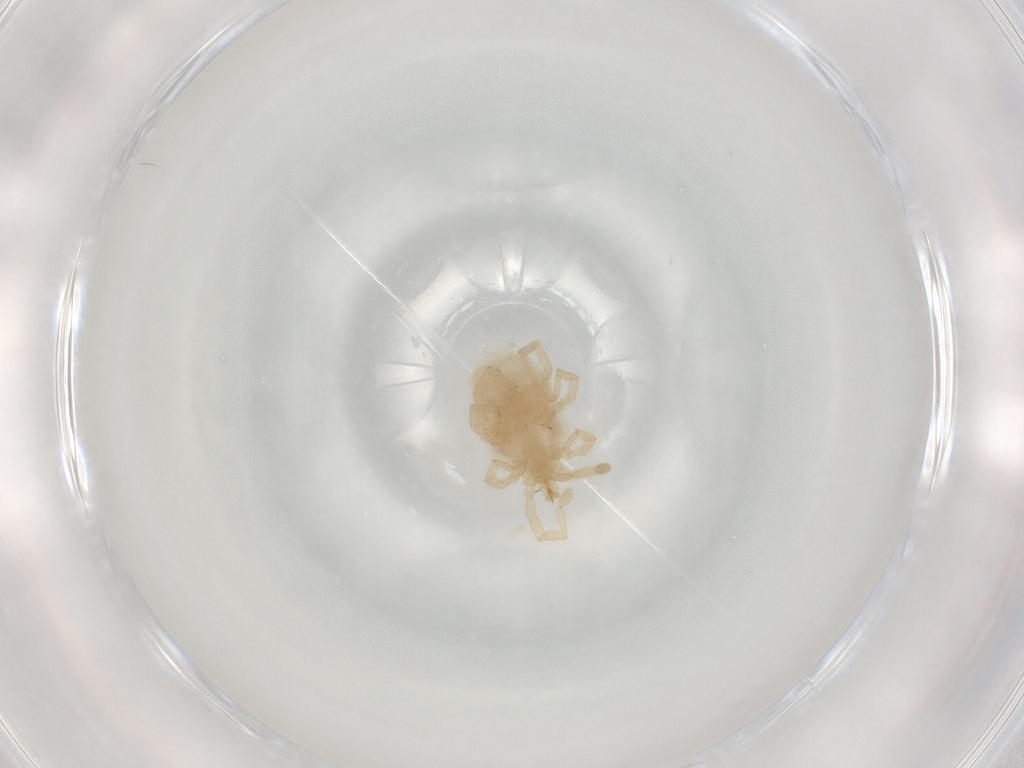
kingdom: Animalia
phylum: Arthropoda
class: Arachnida
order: Trombidiformes
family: Erythraeidae
